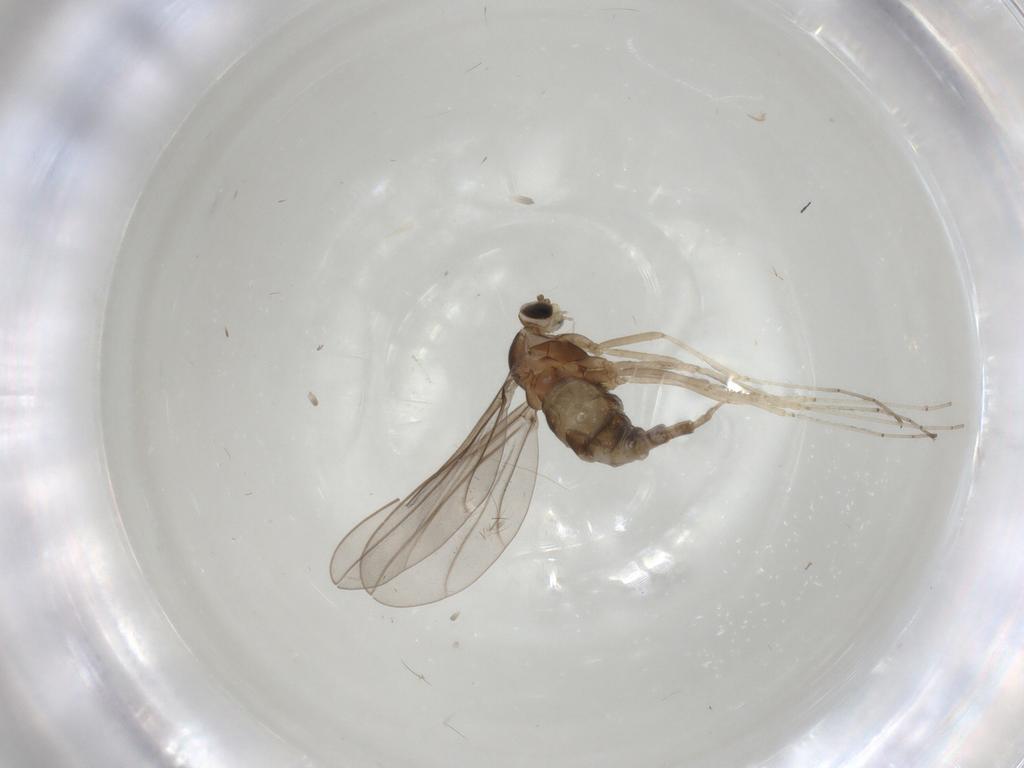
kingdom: Animalia
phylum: Arthropoda
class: Insecta
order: Diptera
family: Cecidomyiidae
